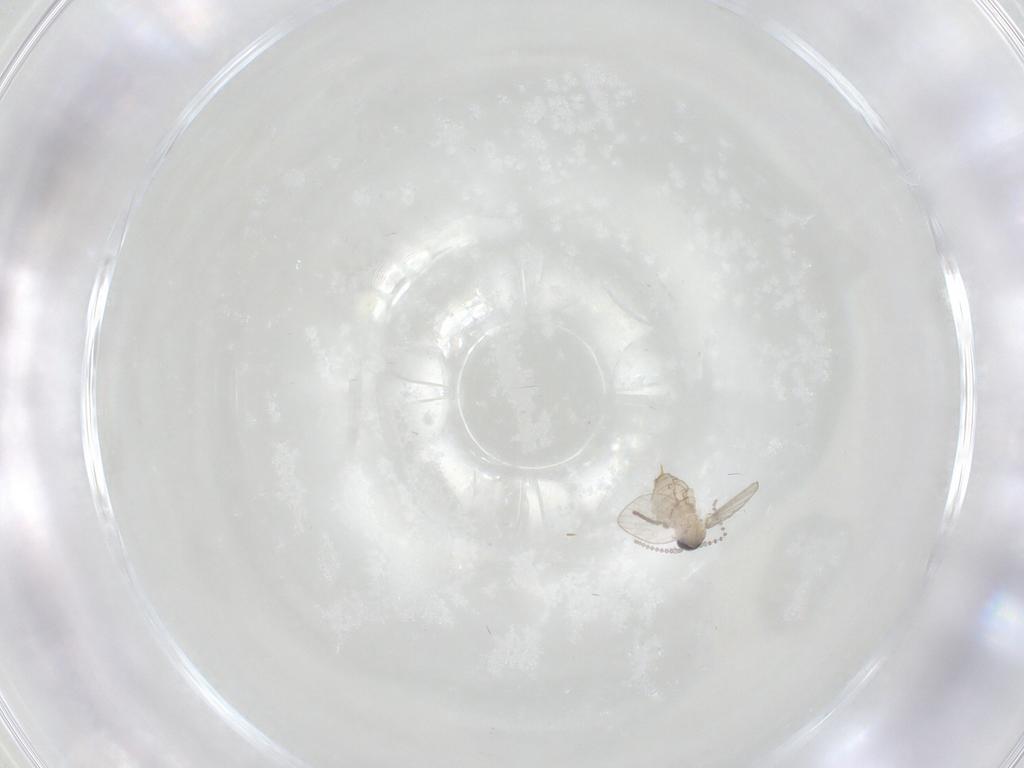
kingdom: Animalia
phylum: Arthropoda
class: Insecta
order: Diptera
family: Psychodidae
